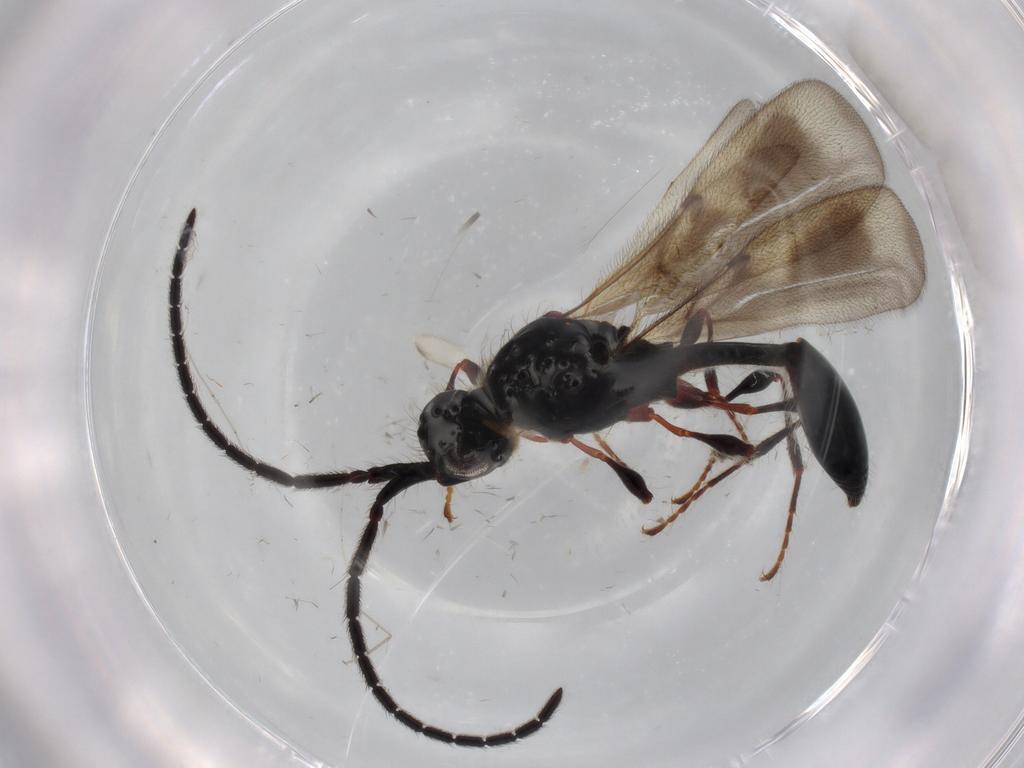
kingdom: Animalia
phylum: Arthropoda
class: Insecta
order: Hymenoptera
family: Diapriidae
